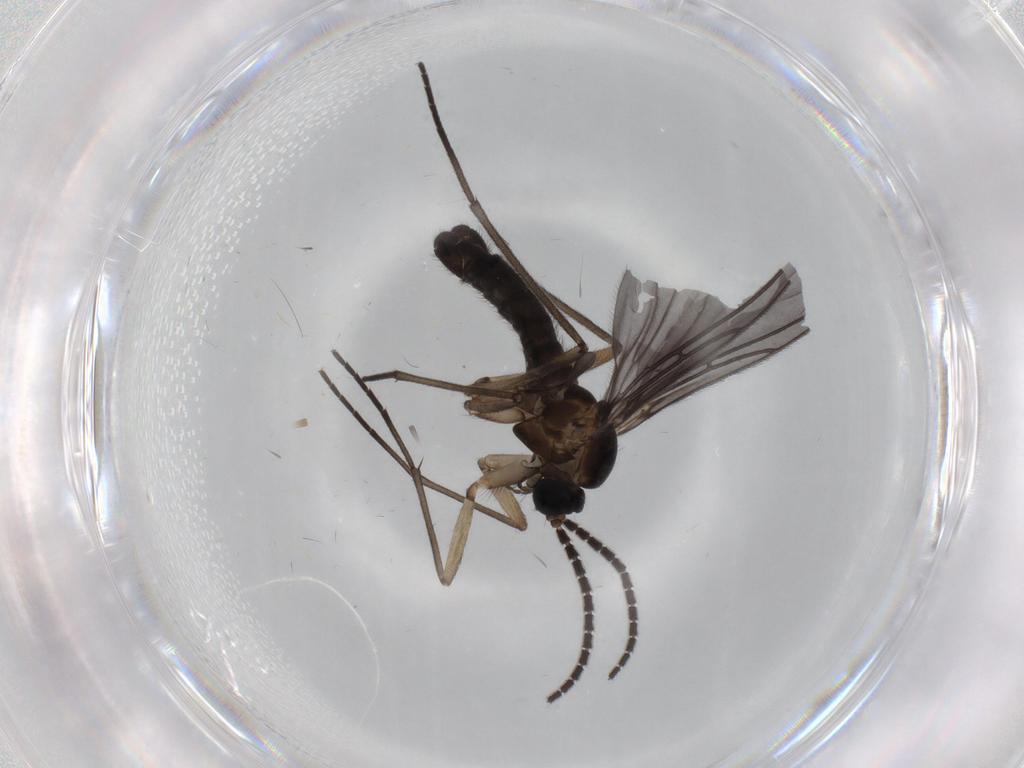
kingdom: Animalia
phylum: Arthropoda
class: Insecta
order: Diptera
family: Sciaridae
